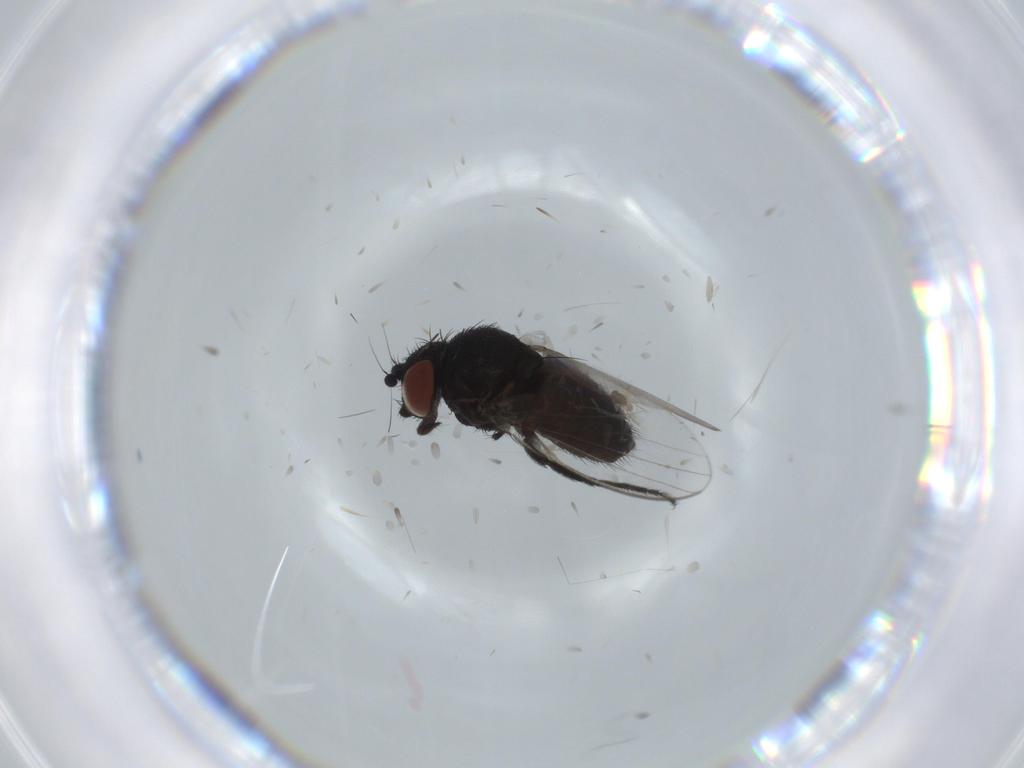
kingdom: Animalia
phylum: Arthropoda
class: Insecta
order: Diptera
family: Milichiidae
